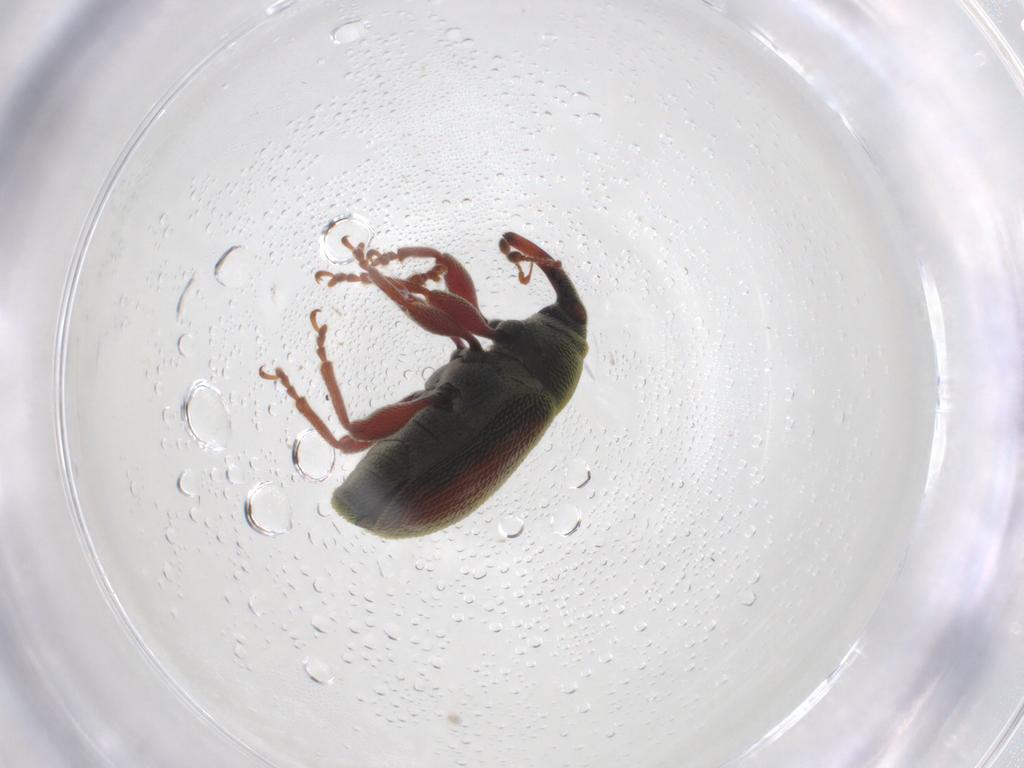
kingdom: Animalia
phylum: Arthropoda
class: Insecta
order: Coleoptera
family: Curculionidae
